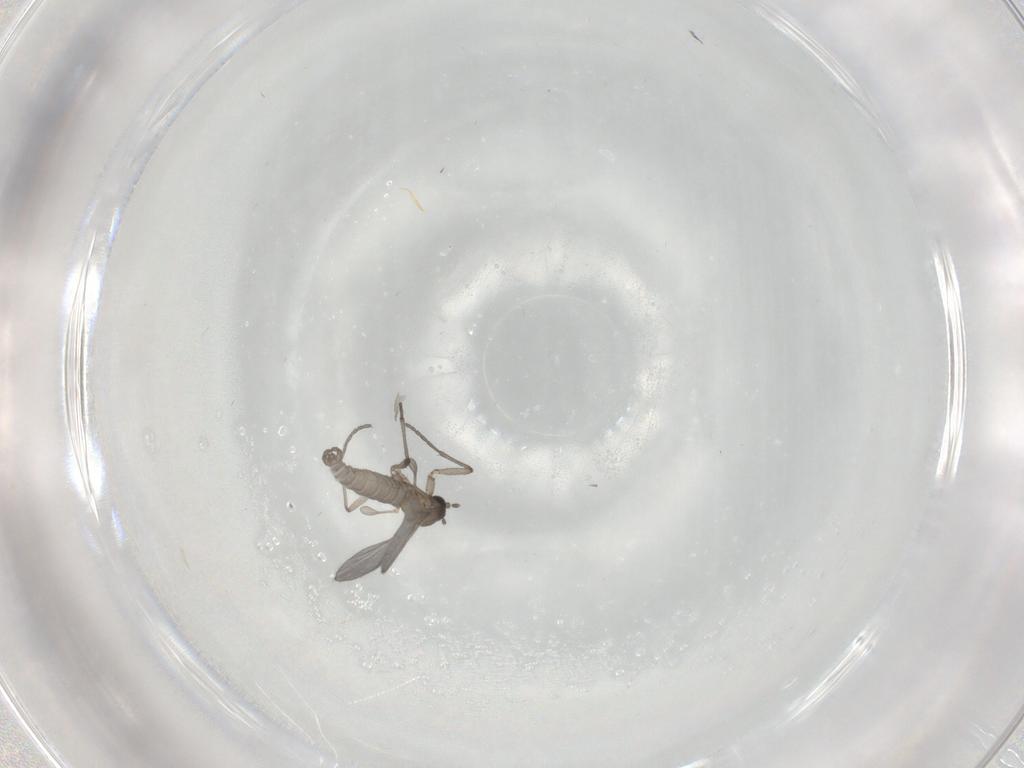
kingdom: Animalia
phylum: Arthropoda
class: Insecta
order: Diptera
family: Sciaridae
